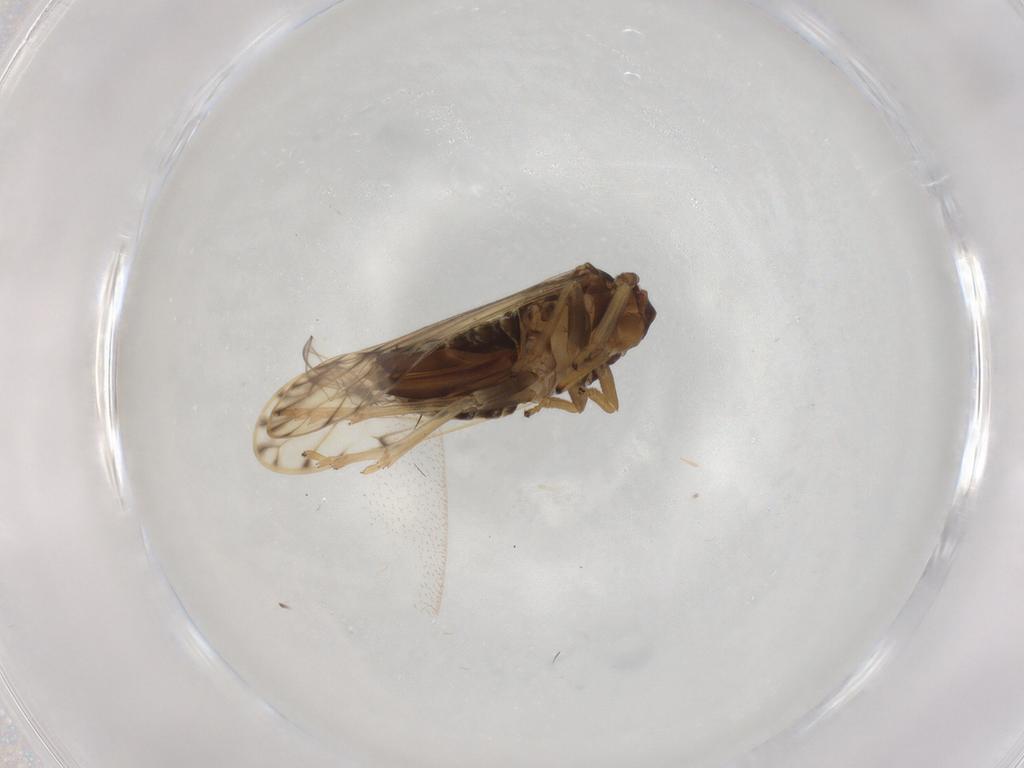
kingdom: Animalia
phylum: Arthropoda
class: Insecta
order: Hemiptera
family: Delphacidae
